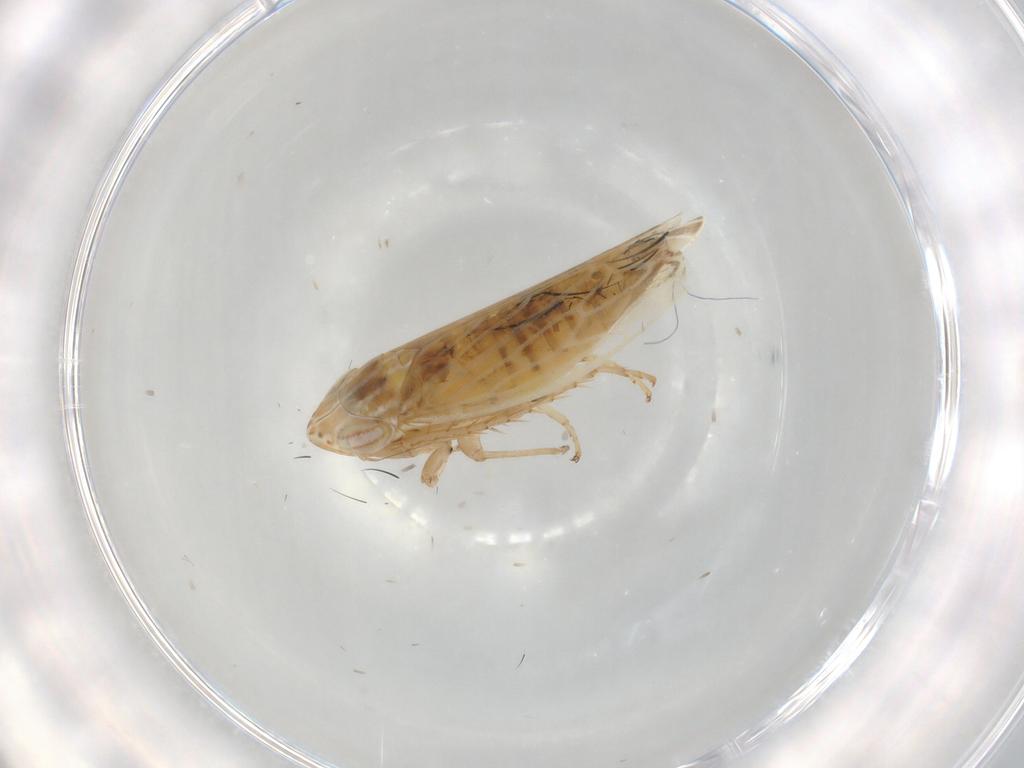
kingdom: Animalia
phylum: Arthropoda
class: Insecta
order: Hemiptera
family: Cicadellidae
